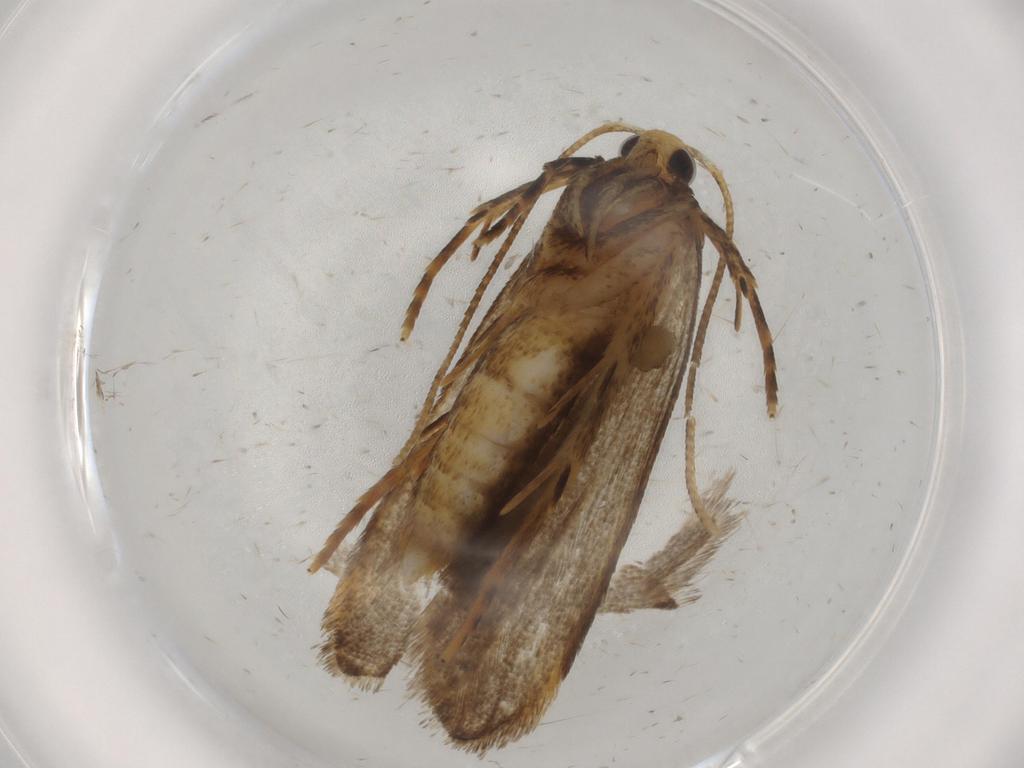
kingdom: Animalia
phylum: Arthropoda
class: Insecta
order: Lepidoptera
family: Autostichidae
